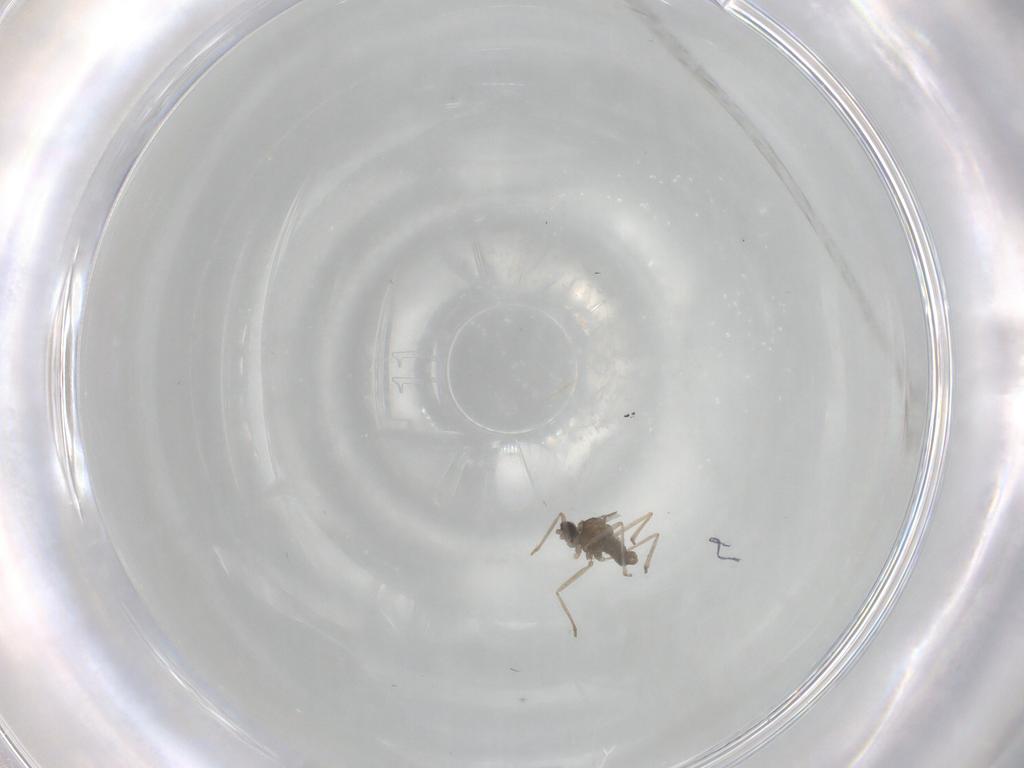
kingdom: Animalia
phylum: Arthropoda
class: Insecta
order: Diptera
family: Cecidomyiidae
